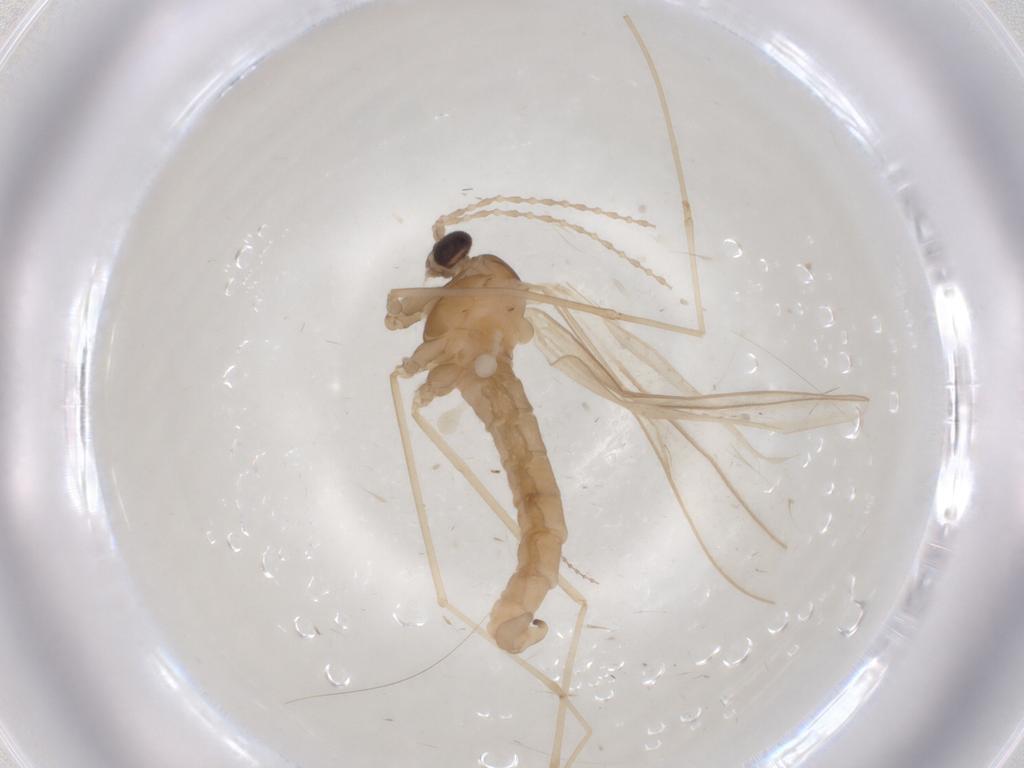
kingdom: Animalia
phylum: Arthropoda
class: Insecta
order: Diptera
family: Cecidomyiidae
